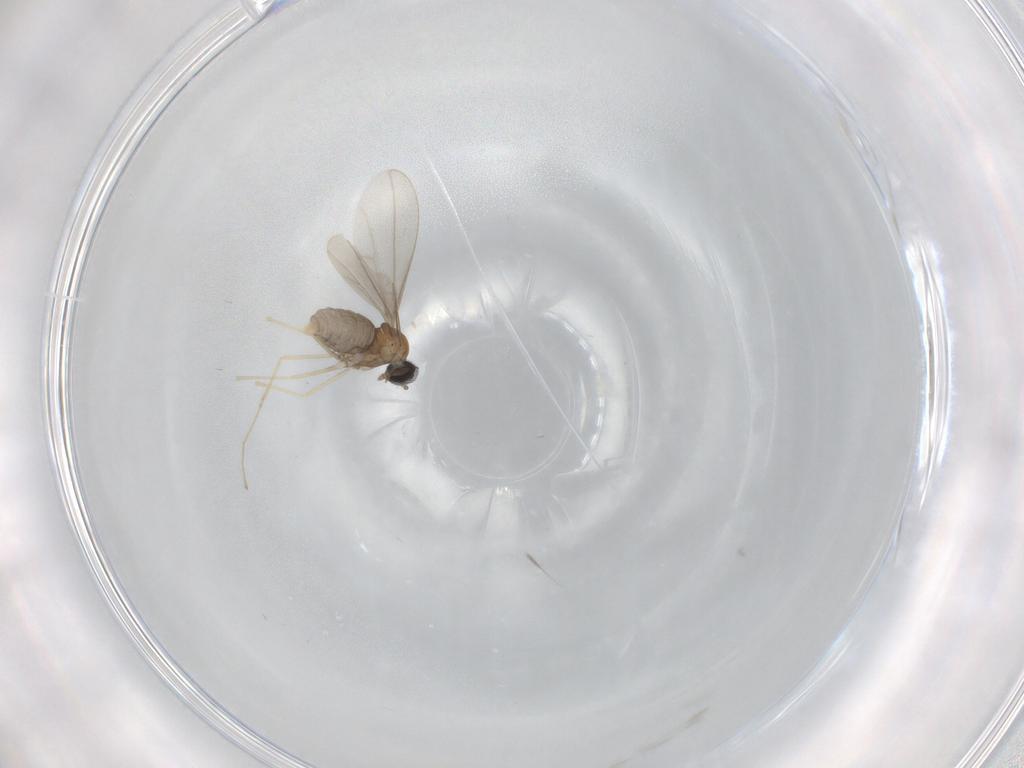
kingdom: Animalia
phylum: Arthropoda
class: Insecta
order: Diptera
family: Cecidomyiidae
